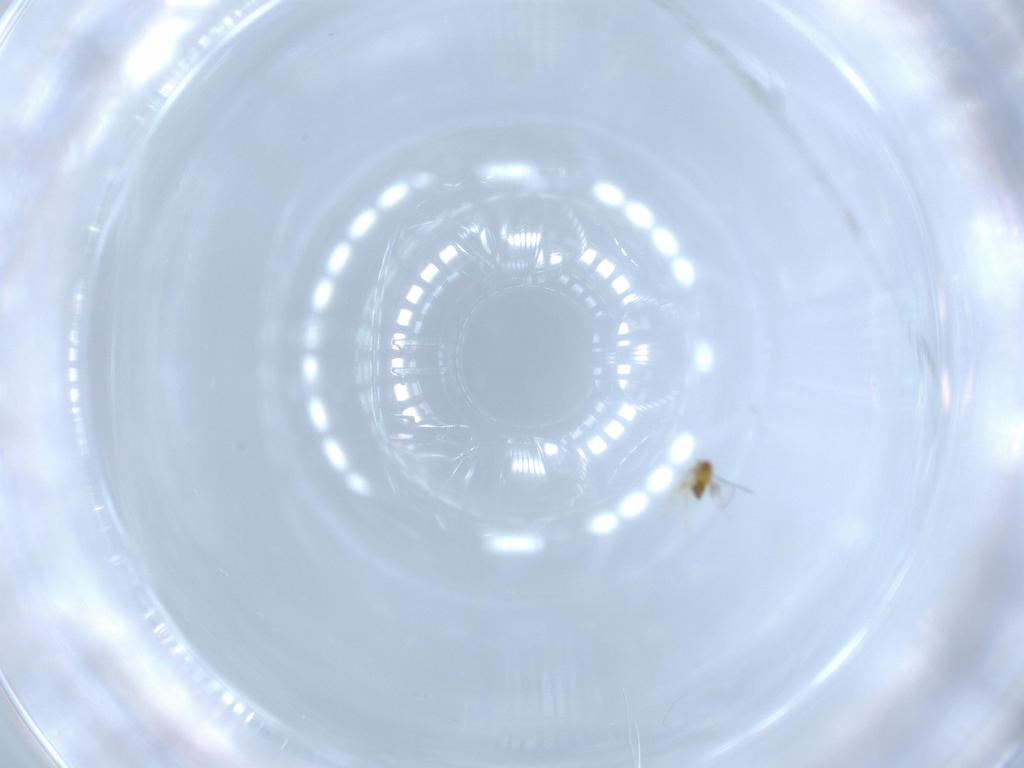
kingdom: Animalia
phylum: Arthropoda
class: Insecta
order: Hymenoptera
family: Trichogrammatidae
